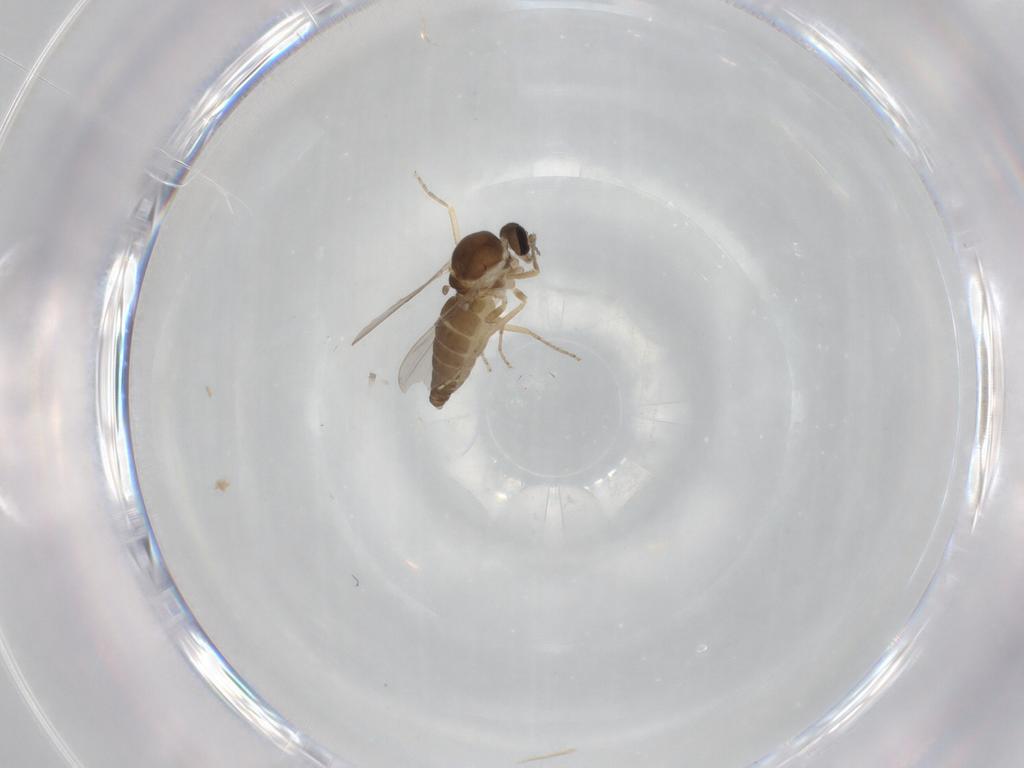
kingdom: Animalia
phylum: Arthropoda
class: Insecta
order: Diptera
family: Ceratopogonidae
